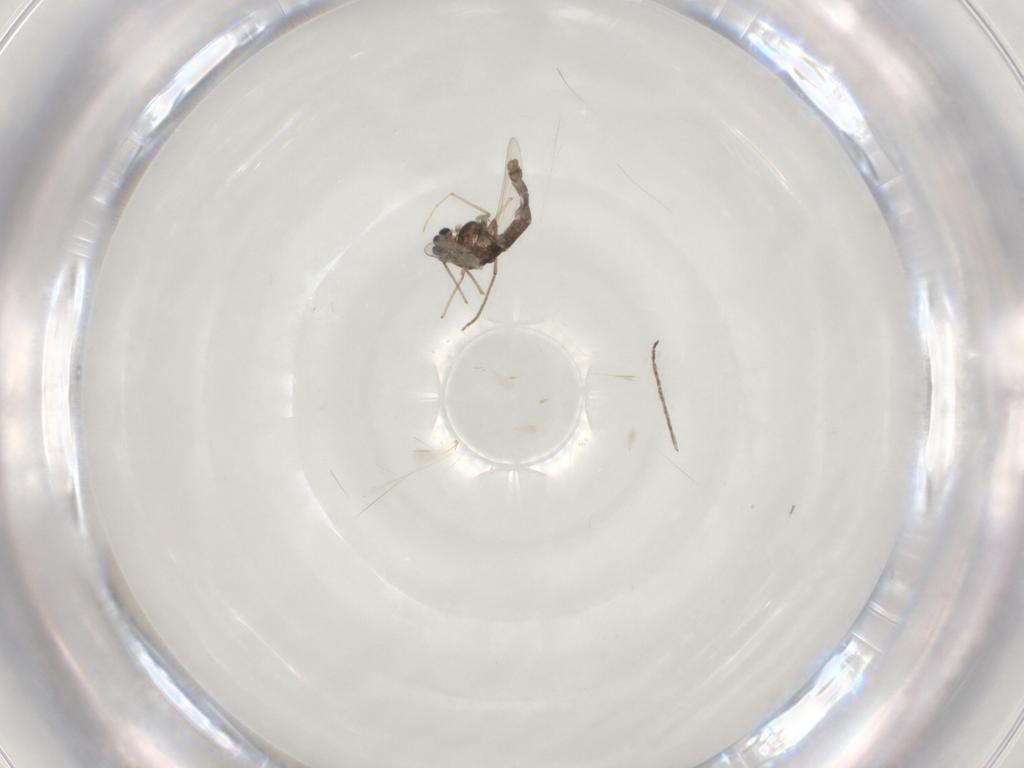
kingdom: Animalia
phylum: Arthropoda
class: Insecta
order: Diptera
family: Chironomidae
